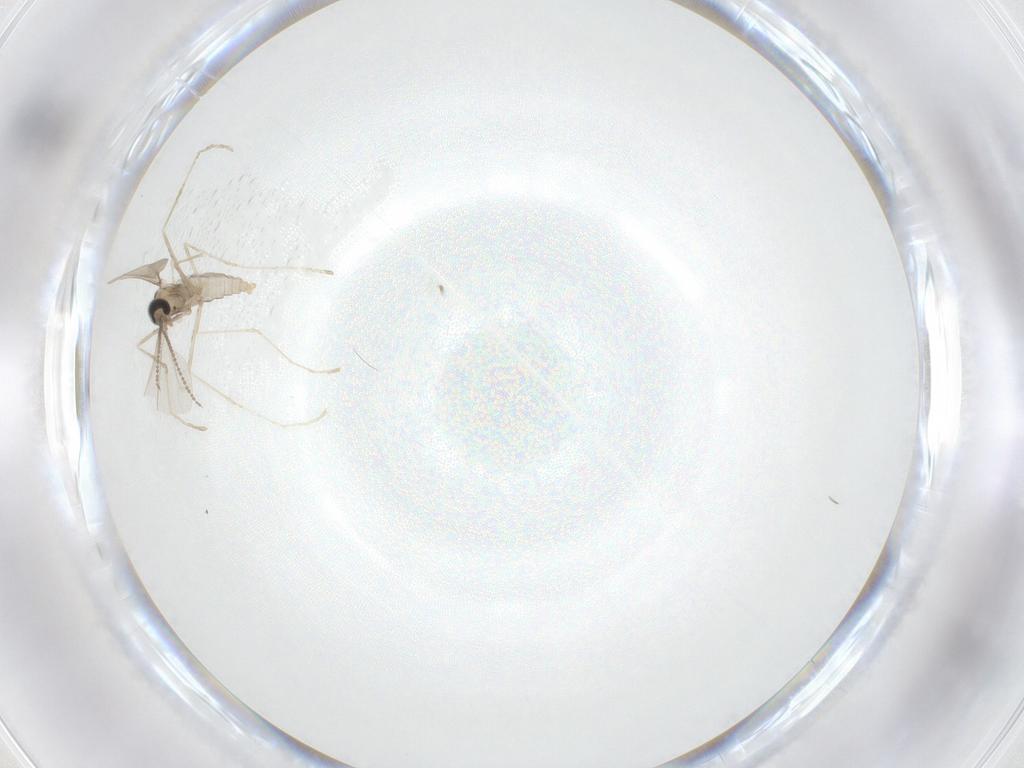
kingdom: Animalia
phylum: Arthropoda
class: Insecta
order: Diptera
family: Cecidomyiidae
